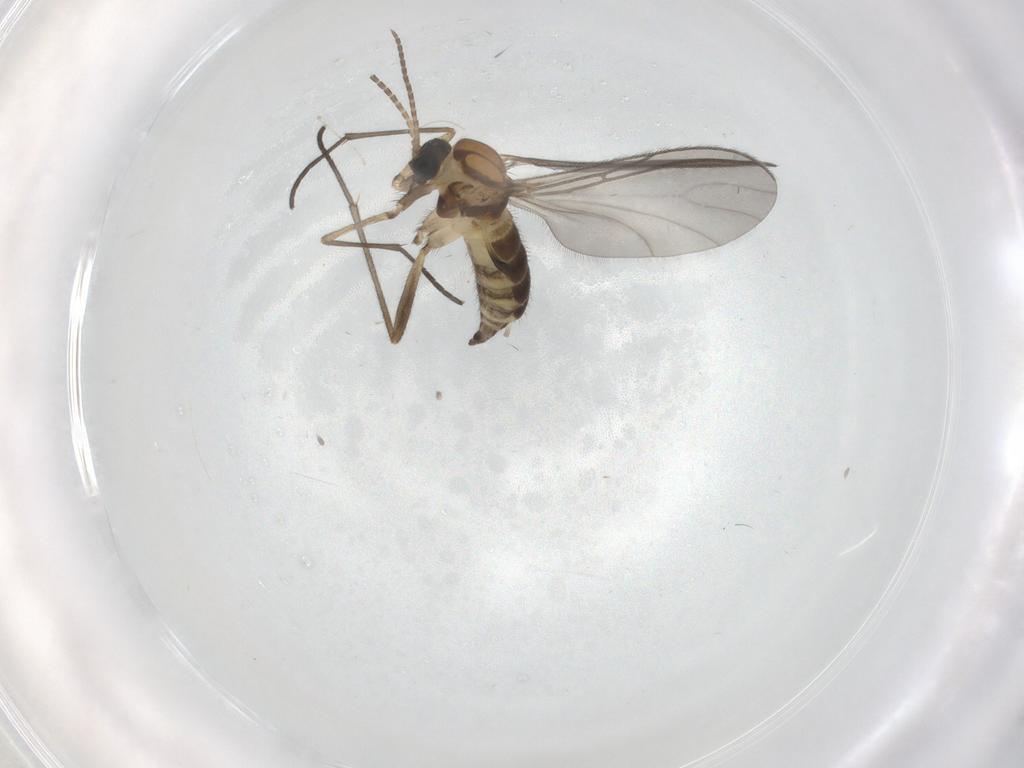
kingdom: Animalia
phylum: Arthropoda
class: Insecta
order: Diptera
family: Sciaridae
